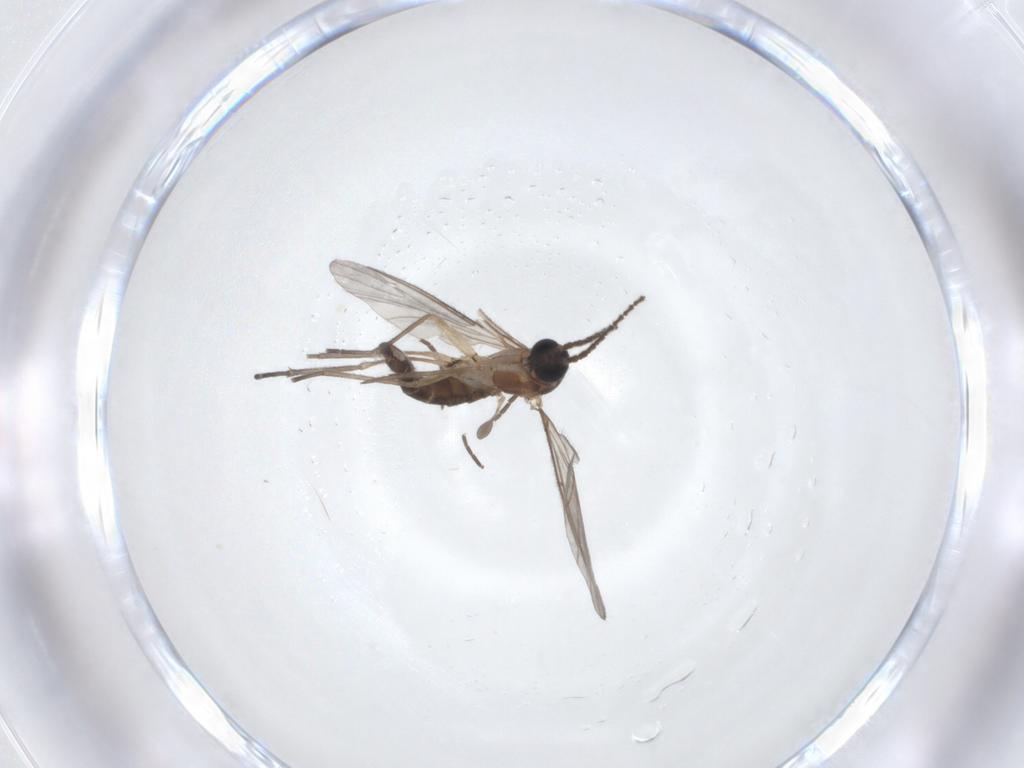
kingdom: Animalia
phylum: Arthropoda
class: Insecta
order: Diptera
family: Sciaridae
